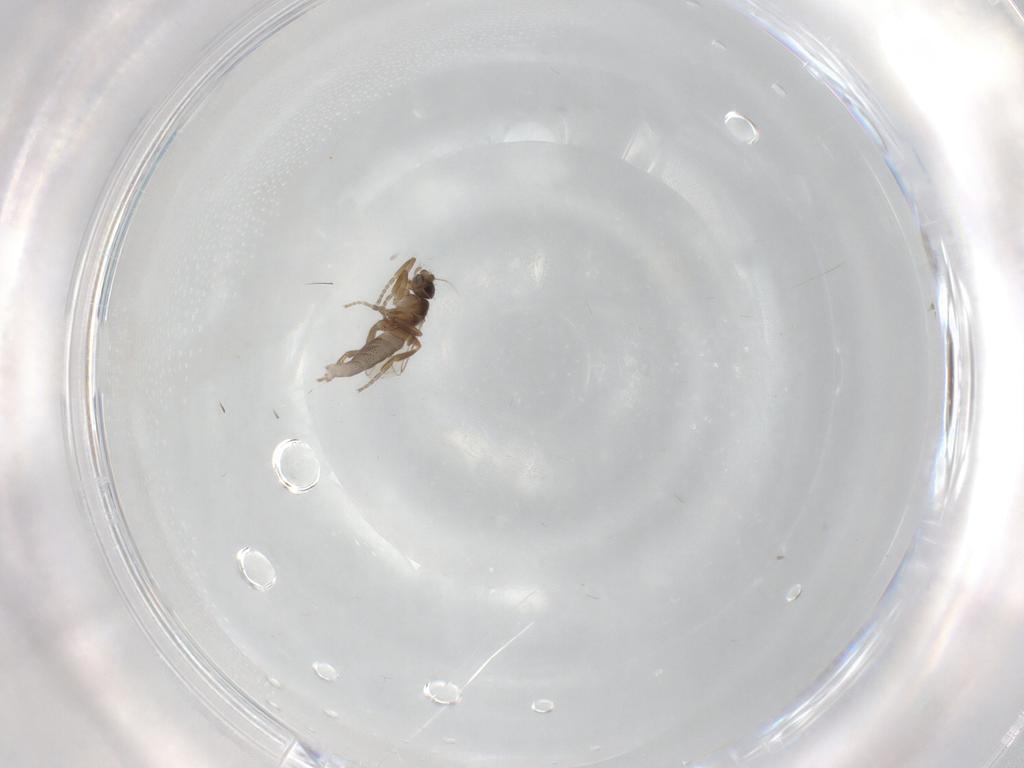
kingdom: Animalia
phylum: Arthropoda
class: Insecta
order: Diptera
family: Phoridae
